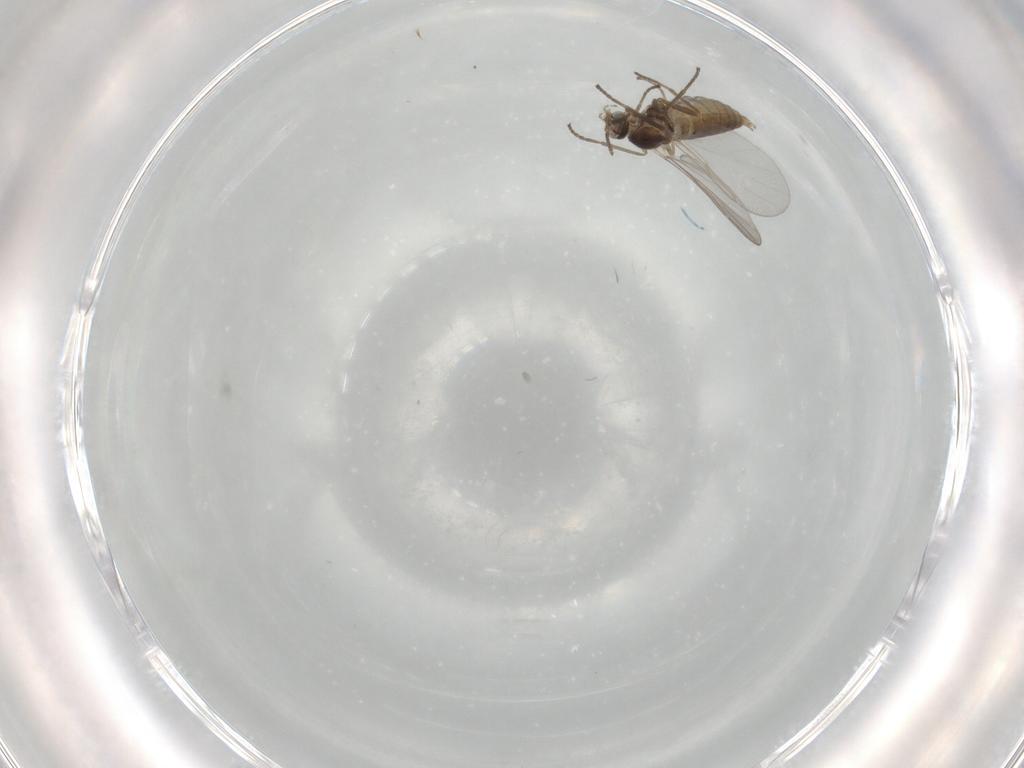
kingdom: Animalia
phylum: Arthropoda
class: Insecta
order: Diptera
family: Cecidomyiidae
